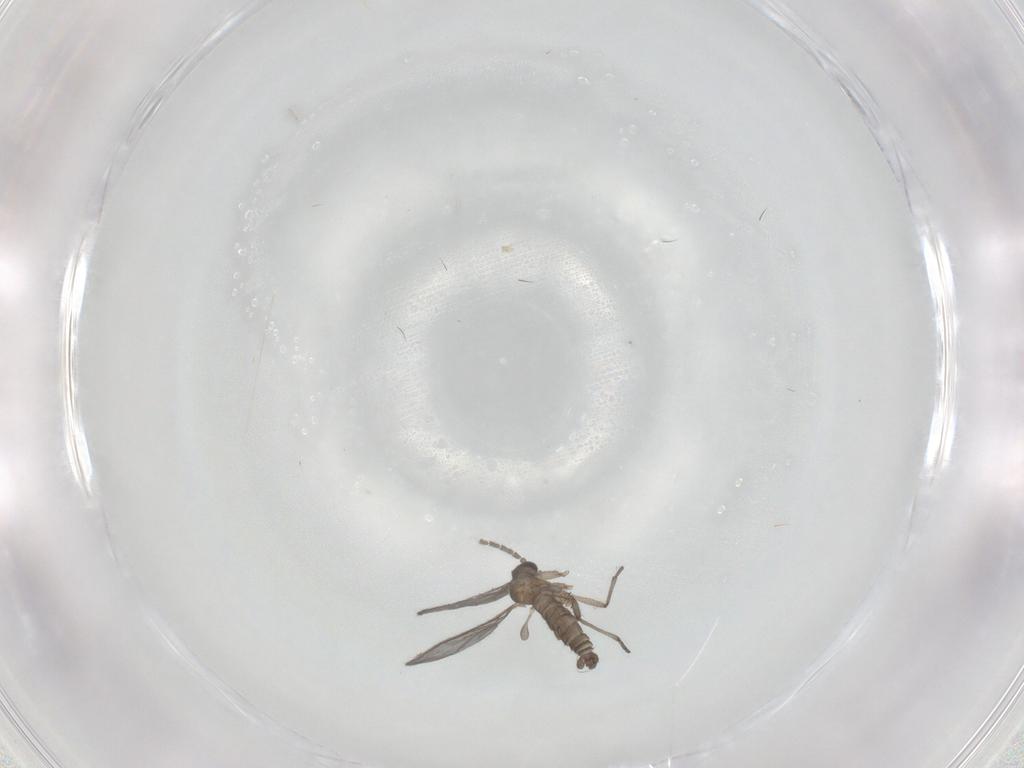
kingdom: Animalia
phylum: Arthropoda
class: Insecta
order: Diptera
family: Sciaridae
